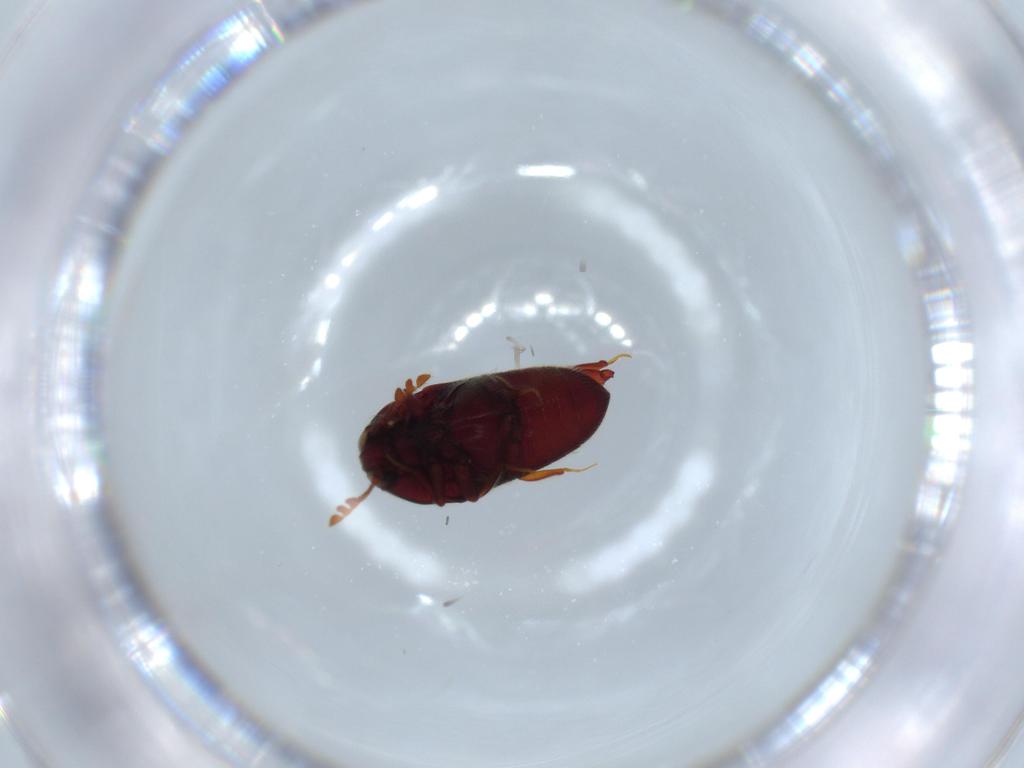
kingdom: Animalia
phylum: Arthropoda
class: Insecta
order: Coleoptera
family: Throscidae
